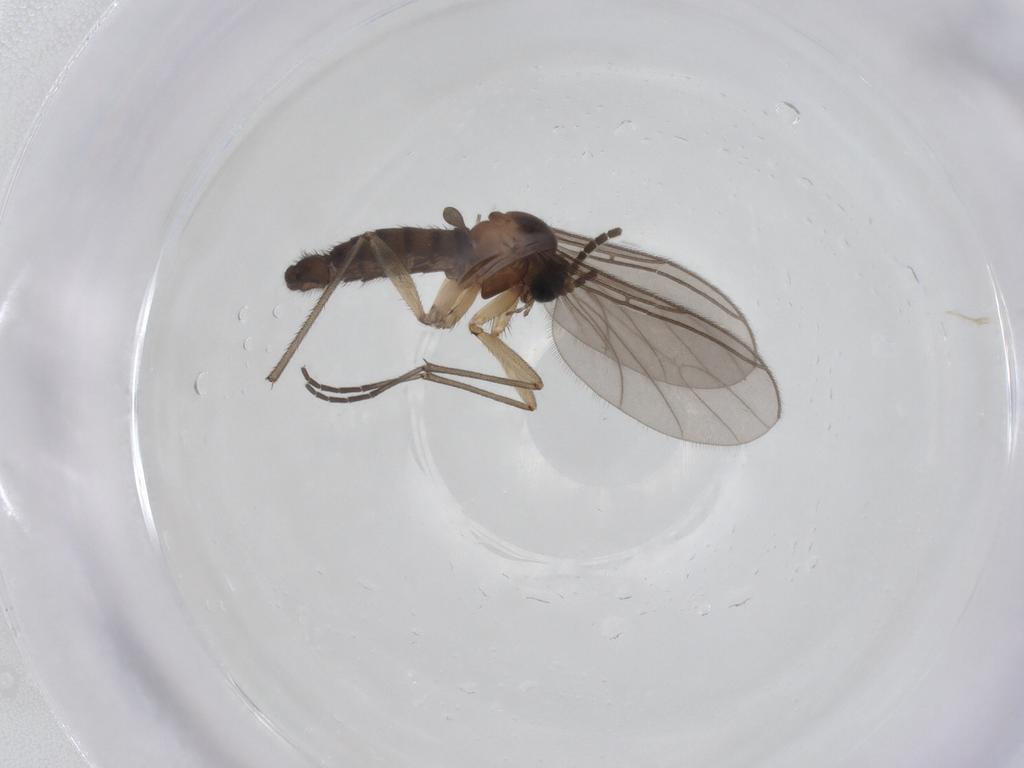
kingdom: Animalia
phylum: Arthropoda
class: Insecta
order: Diptera
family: Sciaridae
